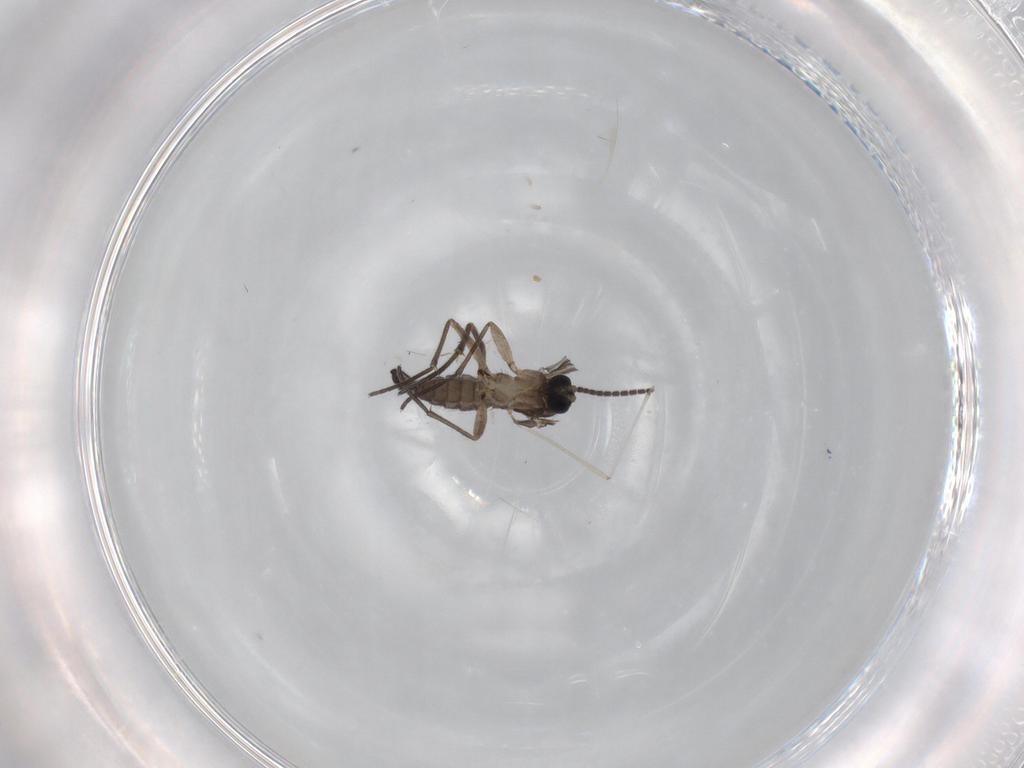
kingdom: Animalia
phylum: Arthropoda
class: Insecta
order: Diptera
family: Sciaridae
